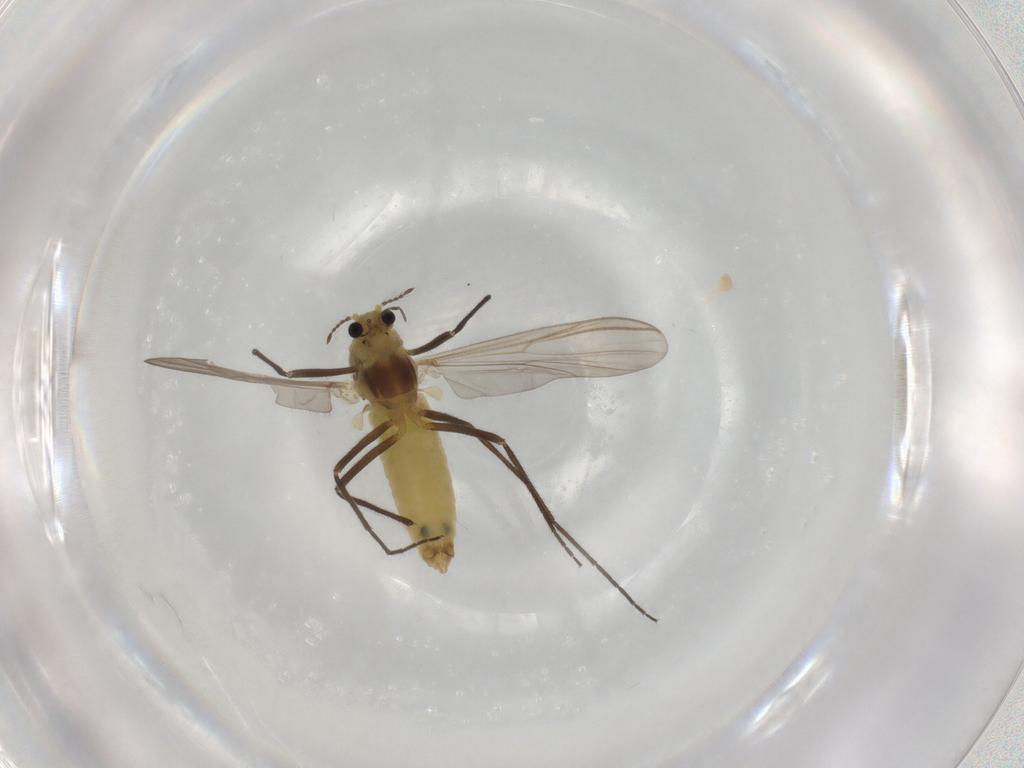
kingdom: Animalia
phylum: Arthropoda
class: Insecta
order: Diptera
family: Chironomidae
